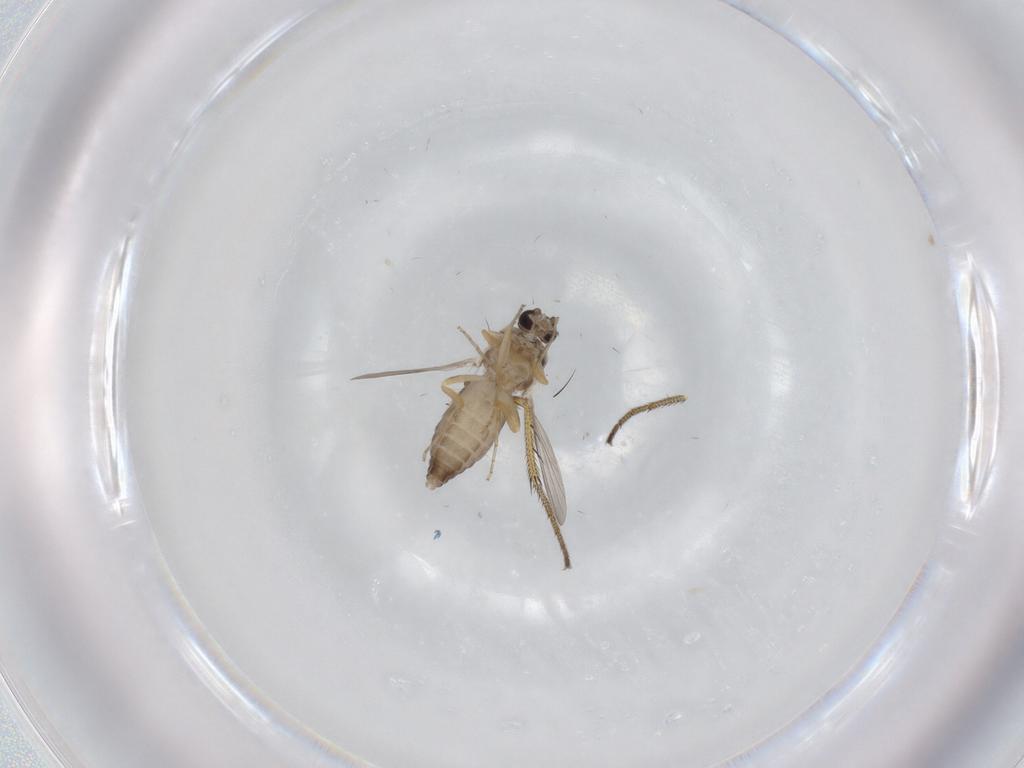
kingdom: Animalia
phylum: Arthropoda
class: Insecta
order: Diptera
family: Ceratopogonidae
